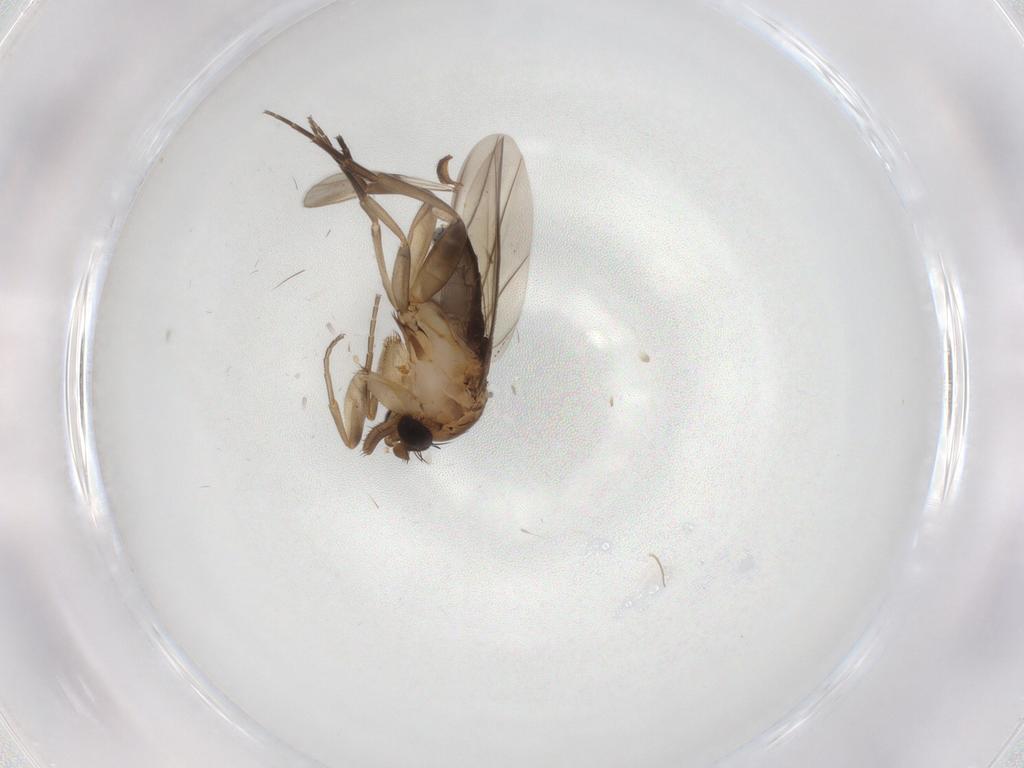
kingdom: Animalia
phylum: Arthropoda
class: Insecta
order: Diptera
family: Phoridae
